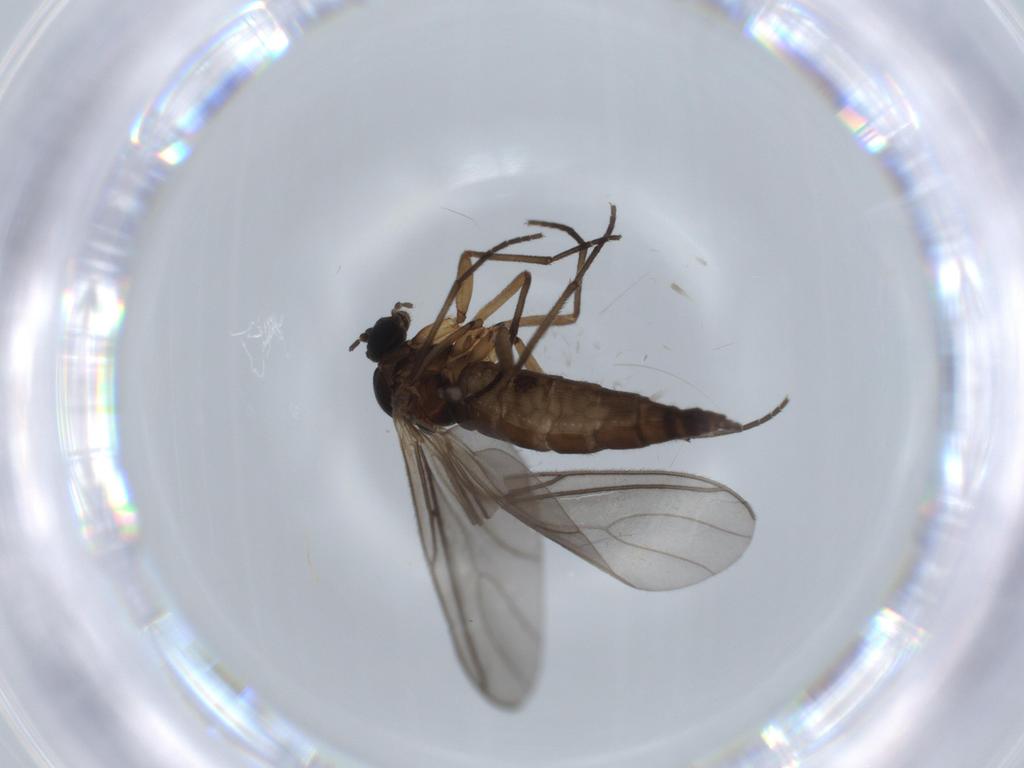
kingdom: Animalia
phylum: Arthropoda
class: Insecta
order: Diptera
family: Sciaridae
